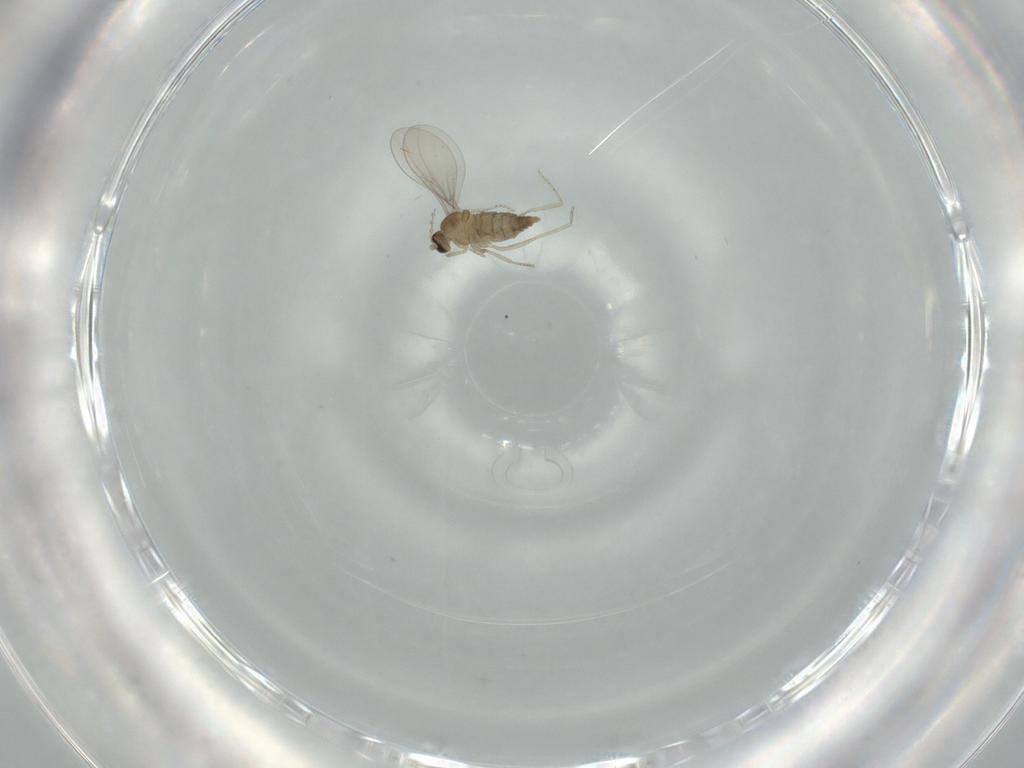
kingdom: Animalia
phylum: Arthropoda
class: Insecta
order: Diptera
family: Cecidomyiidae
